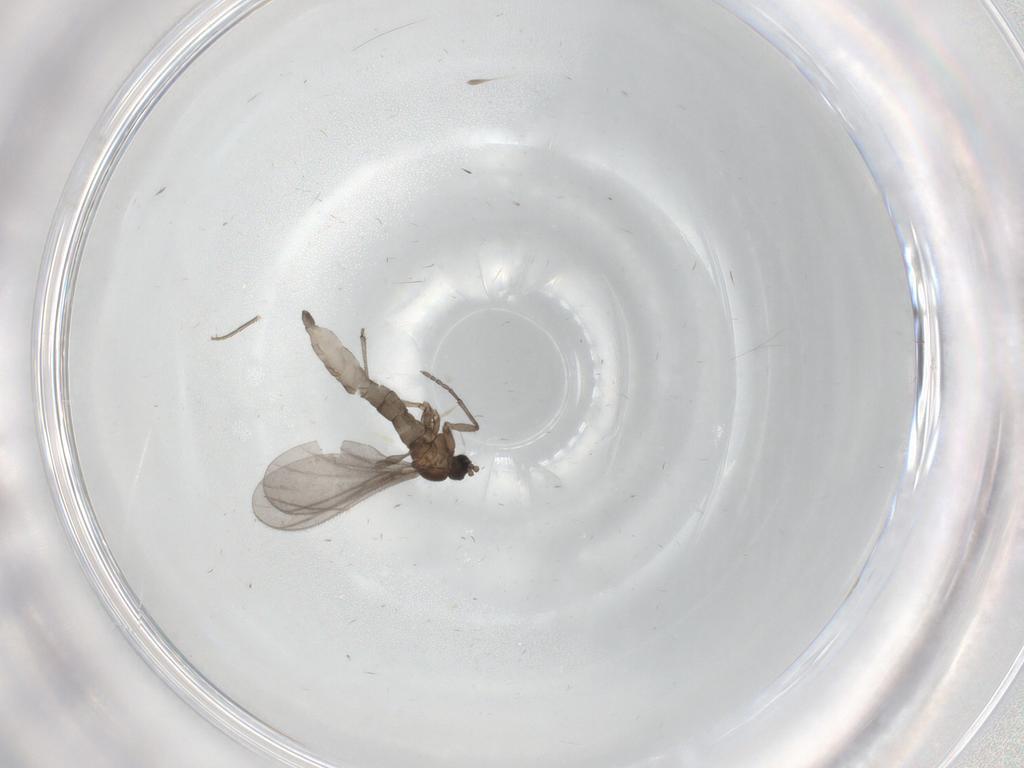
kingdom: Animalia
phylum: Arthropoda
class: Insecta
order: Diptera
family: Sciaridae
